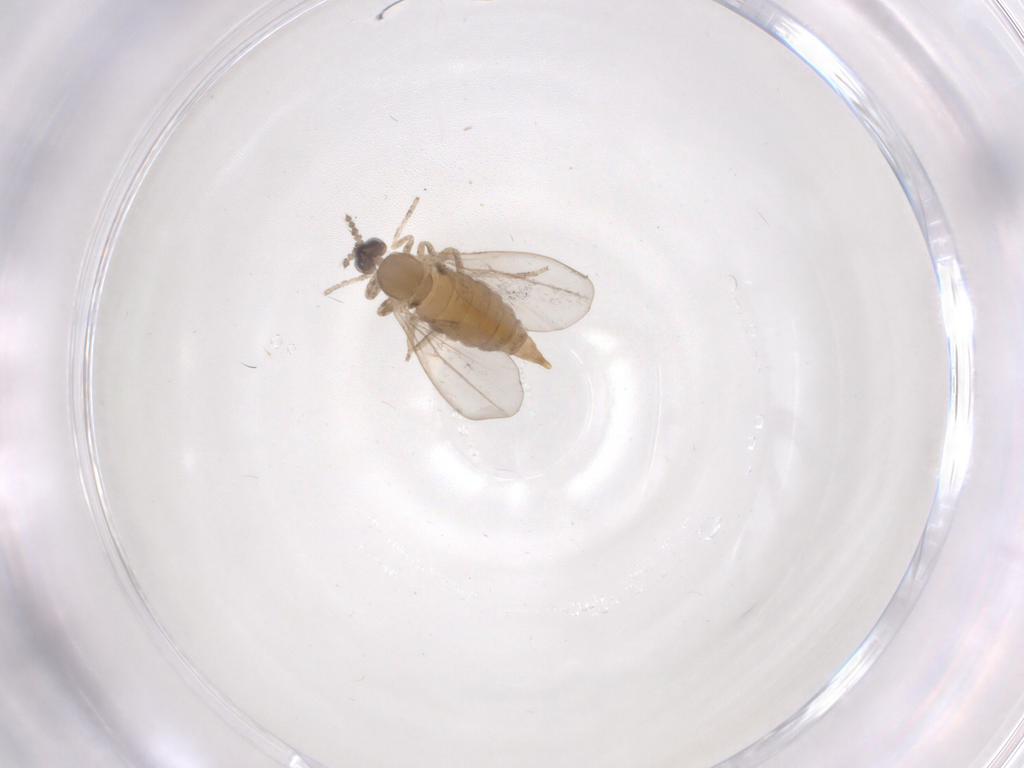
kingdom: Animalia
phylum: Arthropoda
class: Insecta
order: Diptera
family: Cecidomyiidae
